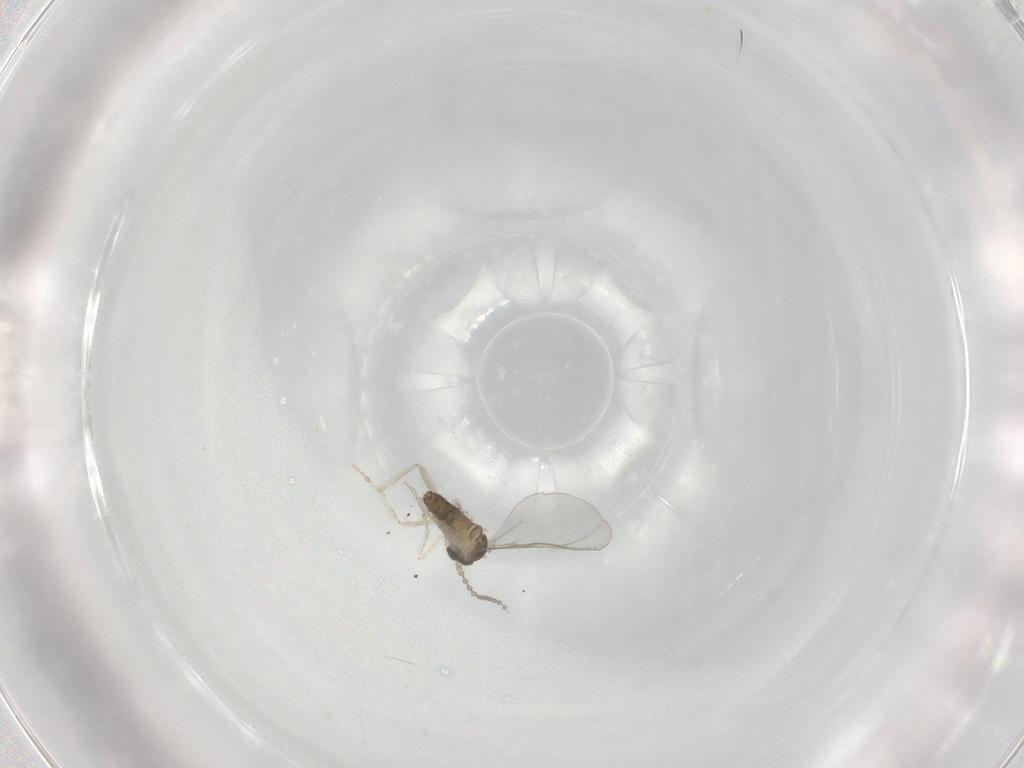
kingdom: Animalia
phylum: Arthropoda
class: Insecta
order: Diptera
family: Cecidomyiidae
